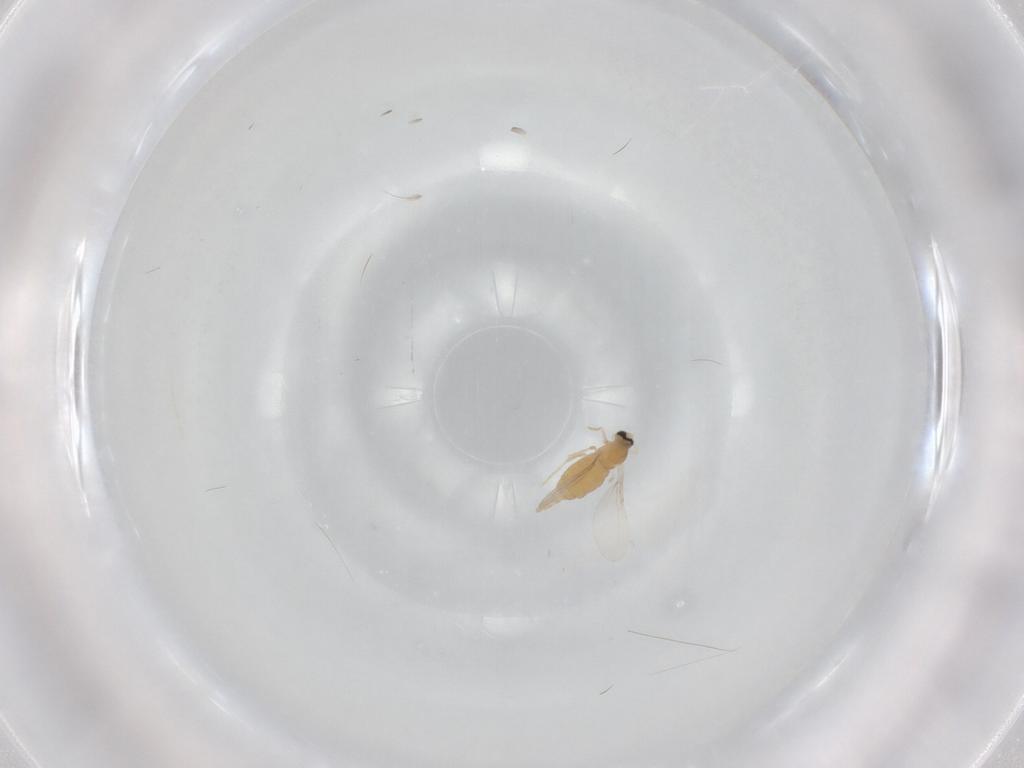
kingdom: Animalia
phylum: Arthropoda
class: Insecta
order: Diptera
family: Cecidomyiidae
